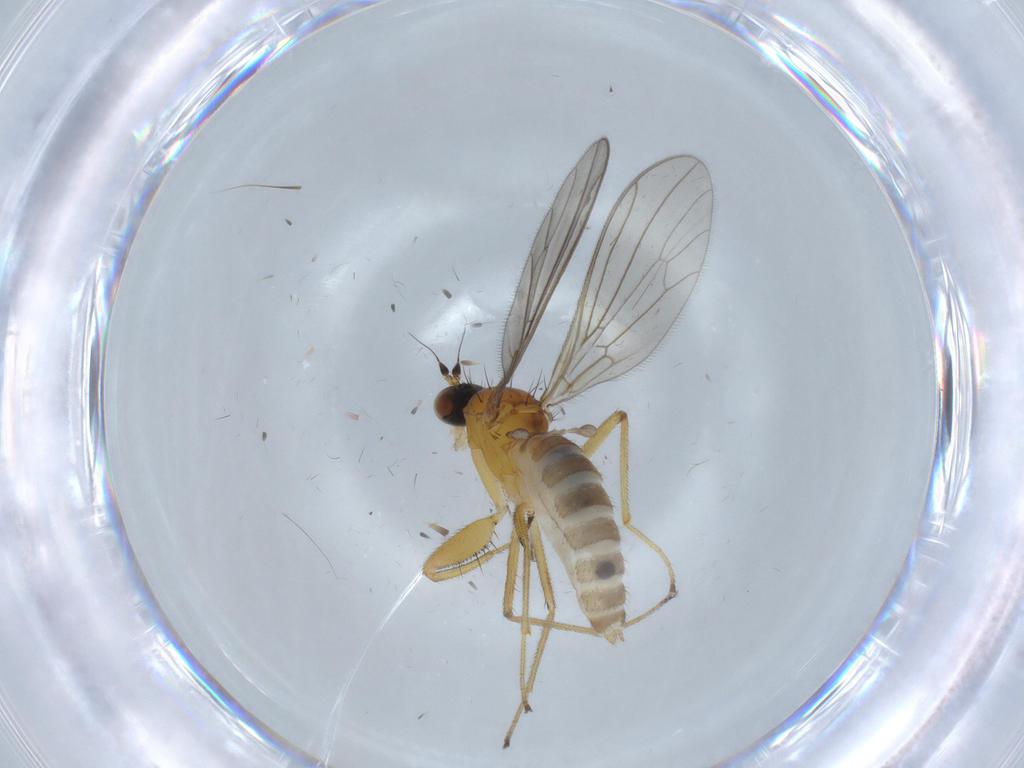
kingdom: Animalia
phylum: Arthropoda
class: Insecta
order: Diptera
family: Empididae
